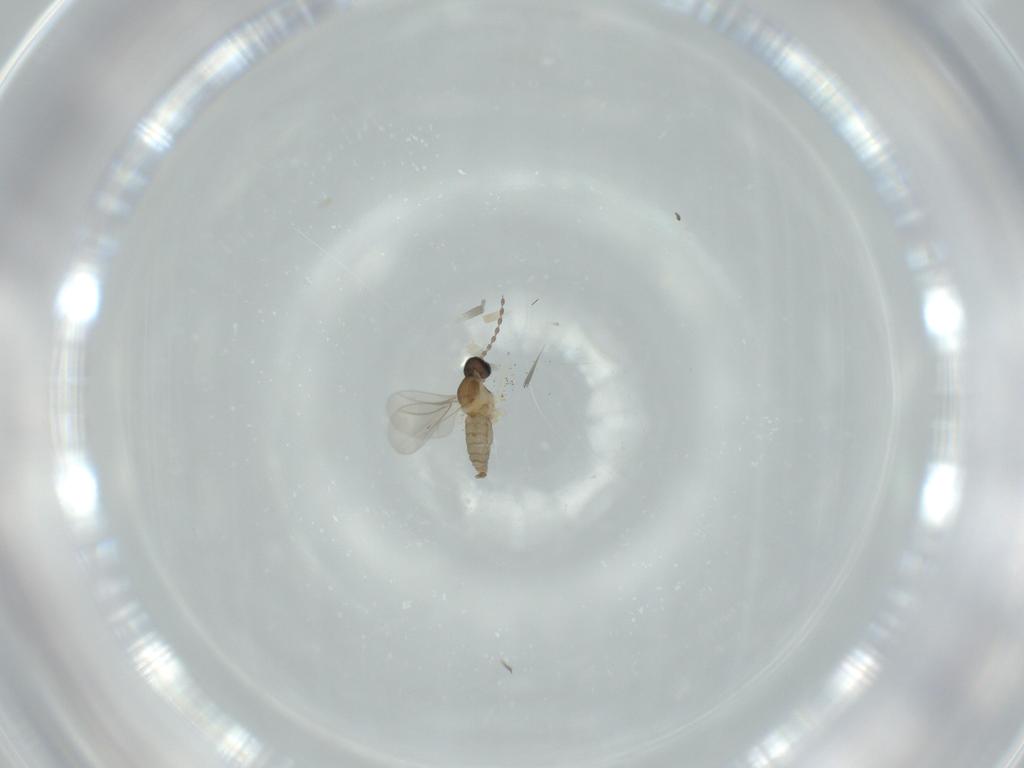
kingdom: Animalia
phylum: Arthropoda
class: Insecta
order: Diptera
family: Cecidomyiidae
